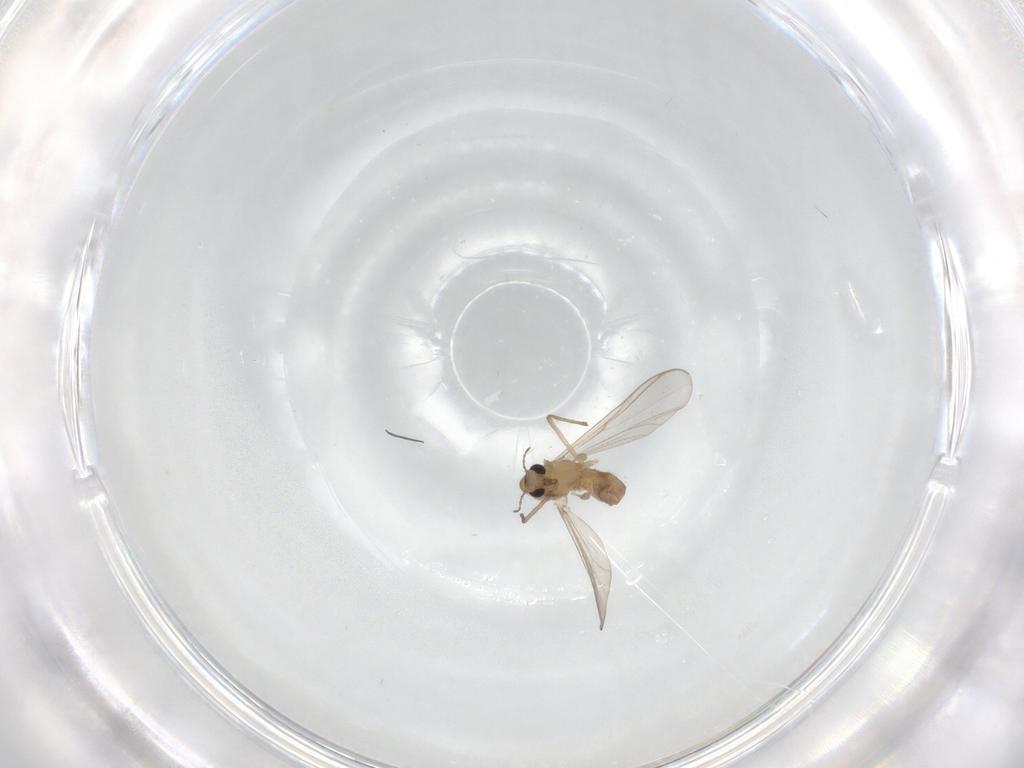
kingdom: Animalia
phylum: Arthropoda
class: Insecta
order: Diptera
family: Chironomidae
